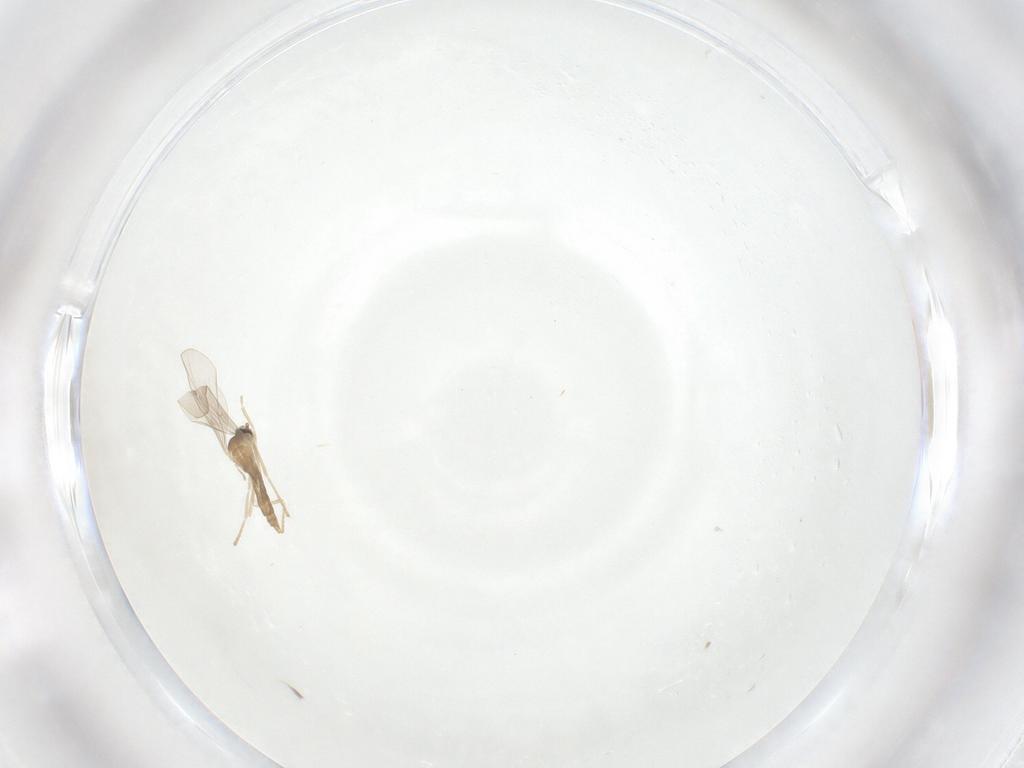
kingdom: Animalia
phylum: Arthropoda
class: Insecta
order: Diptera
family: Cecidomyiidae
